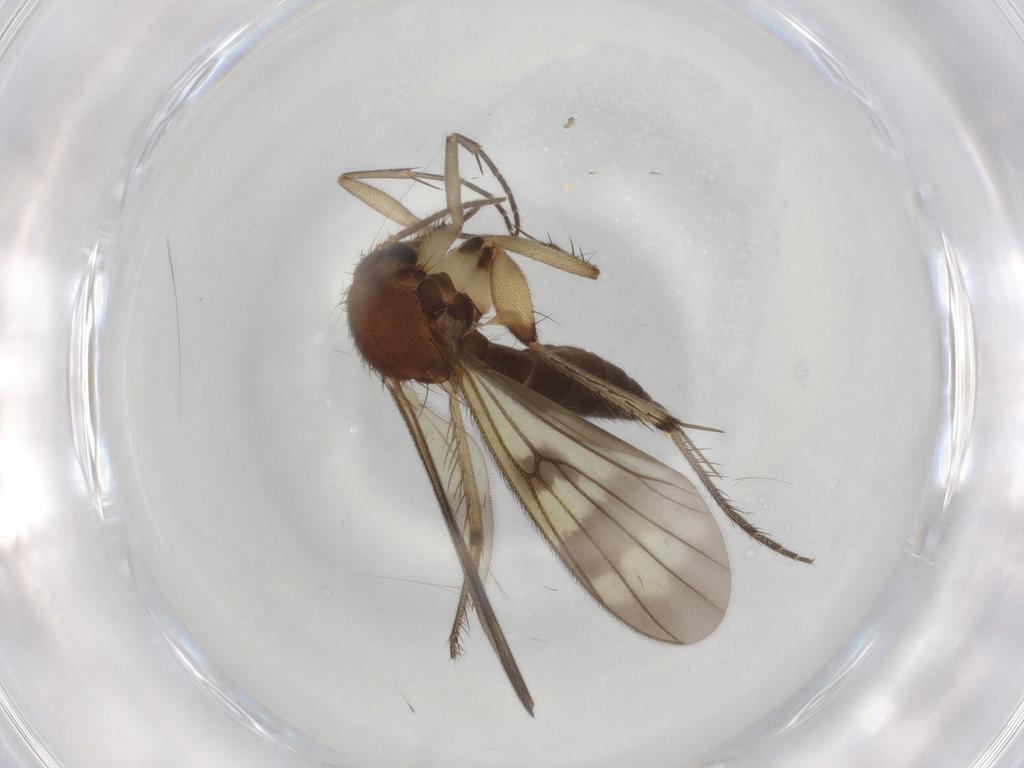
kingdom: Animalia
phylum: Arthropoda
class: Insecta
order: Diptera
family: Mycetophilidae
